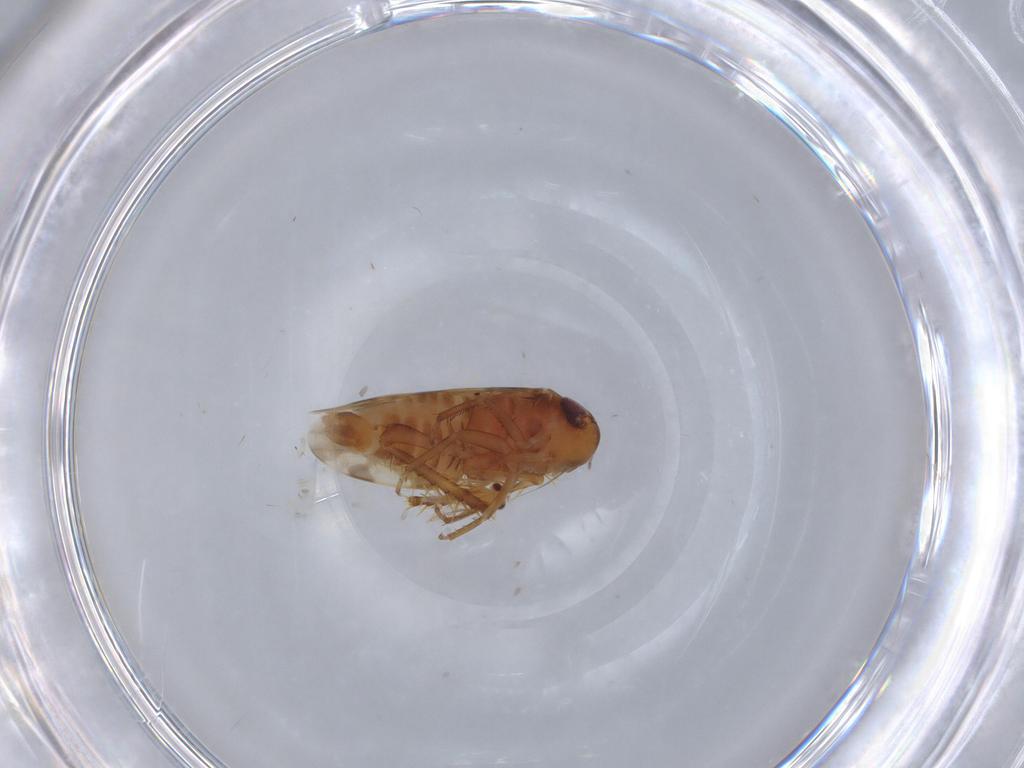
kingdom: Animalia
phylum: Arthropoda
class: Insecta
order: Hemiptera
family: Cicadellidae
